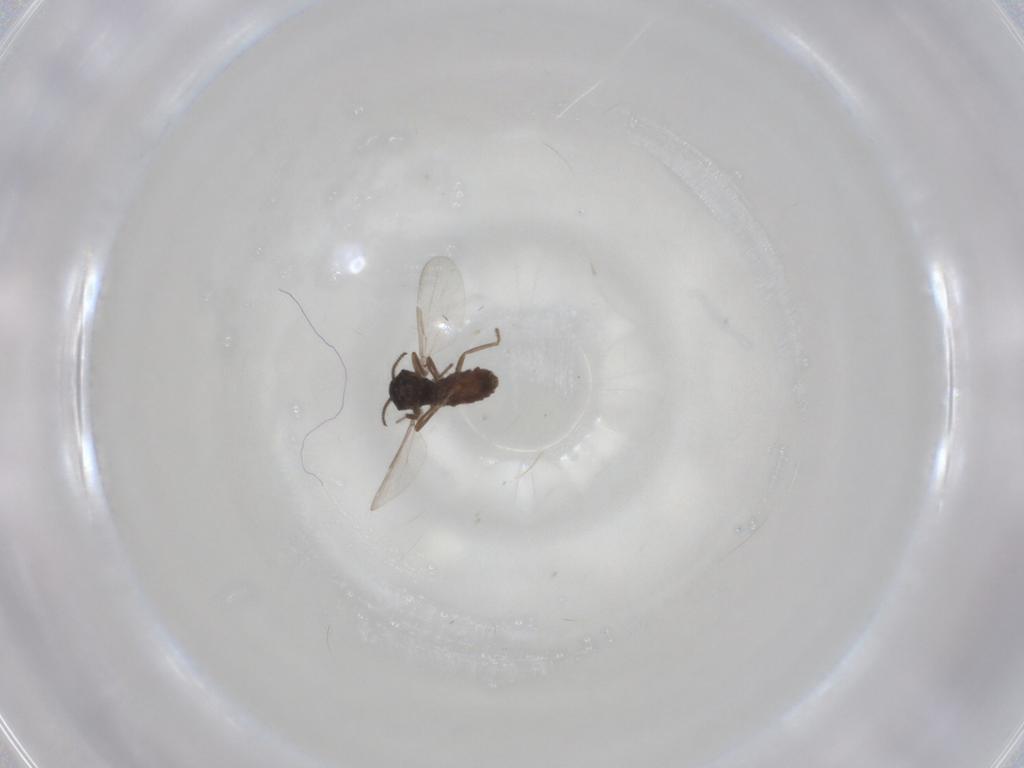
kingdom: Animalia
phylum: Arthropoda
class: Insecta
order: Diptera
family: Ceratopogonidae
